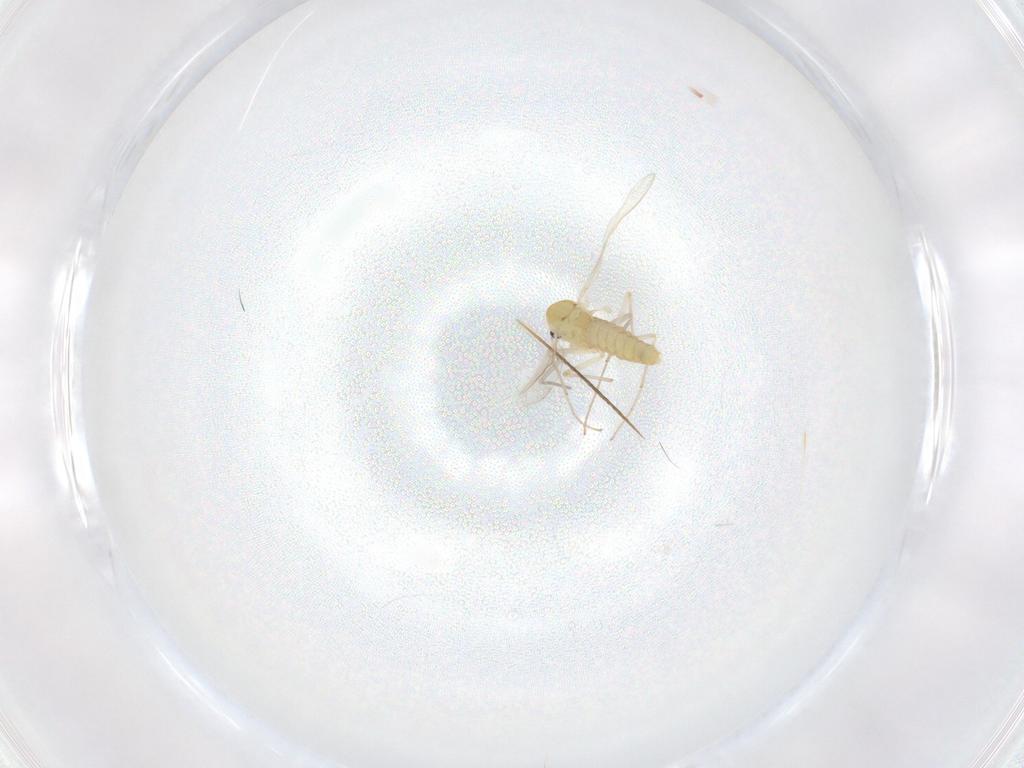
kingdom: Animalia
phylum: Arthropoda
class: Insecta
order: Diptera
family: Chironomidae
